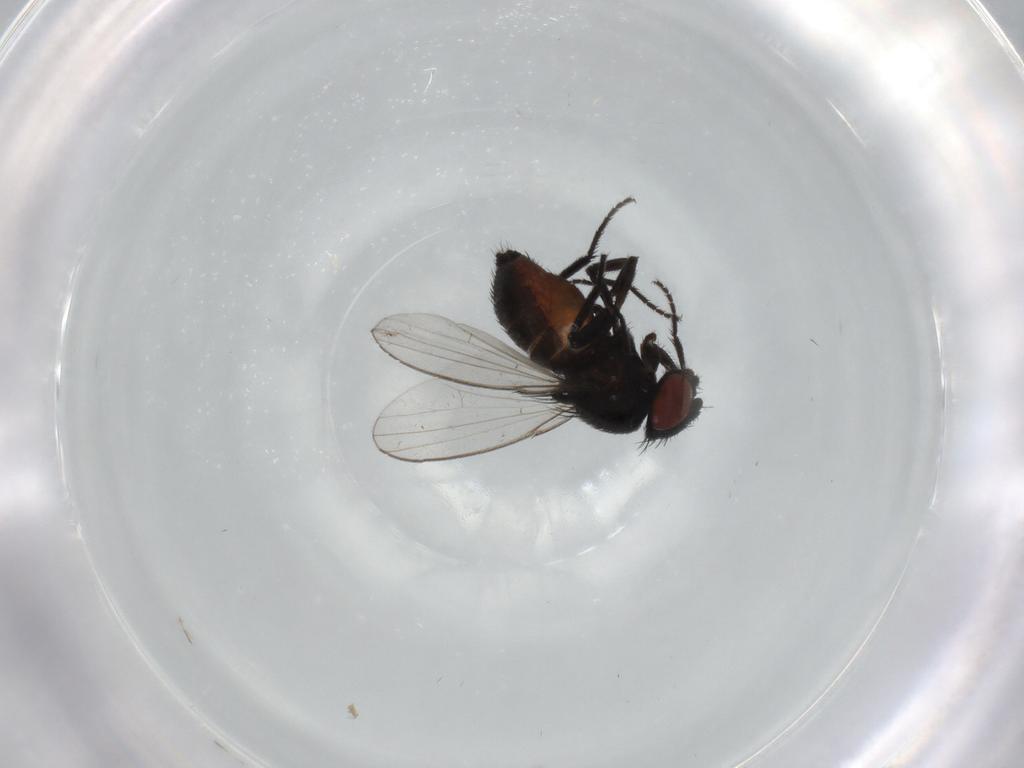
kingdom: Animalia
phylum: Arthropoda
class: Insecta
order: Diptera
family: Milichiidae
